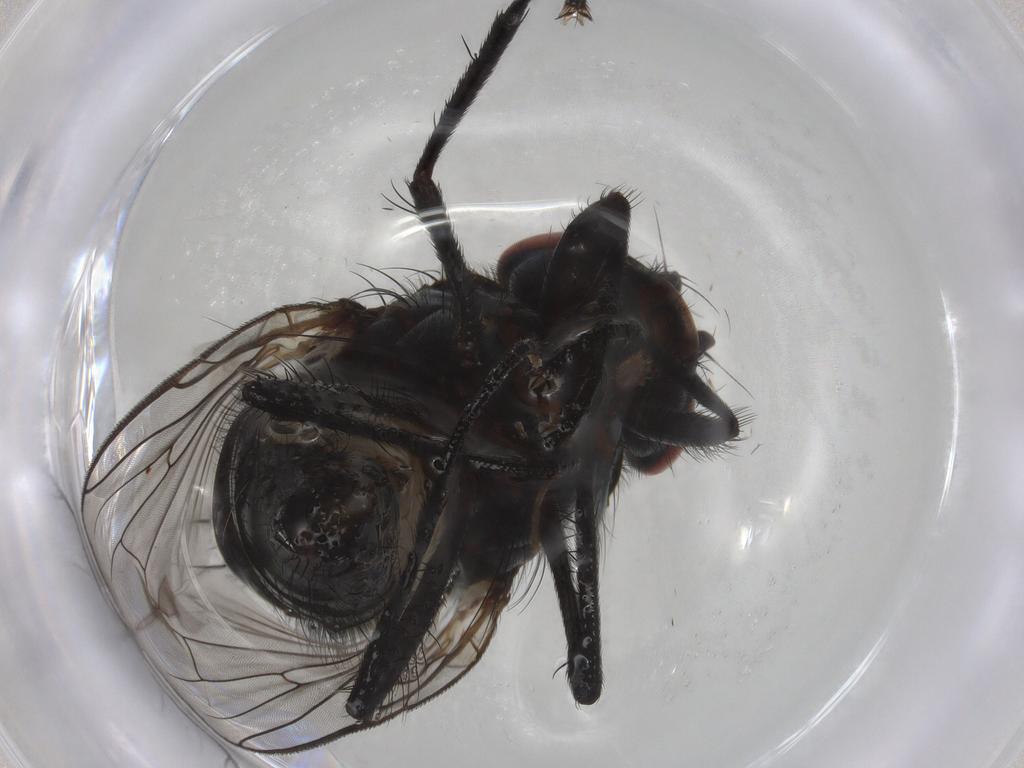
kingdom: Animalia
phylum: Arthropoda
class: Insecta
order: Diptera
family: Anthomyiidae
